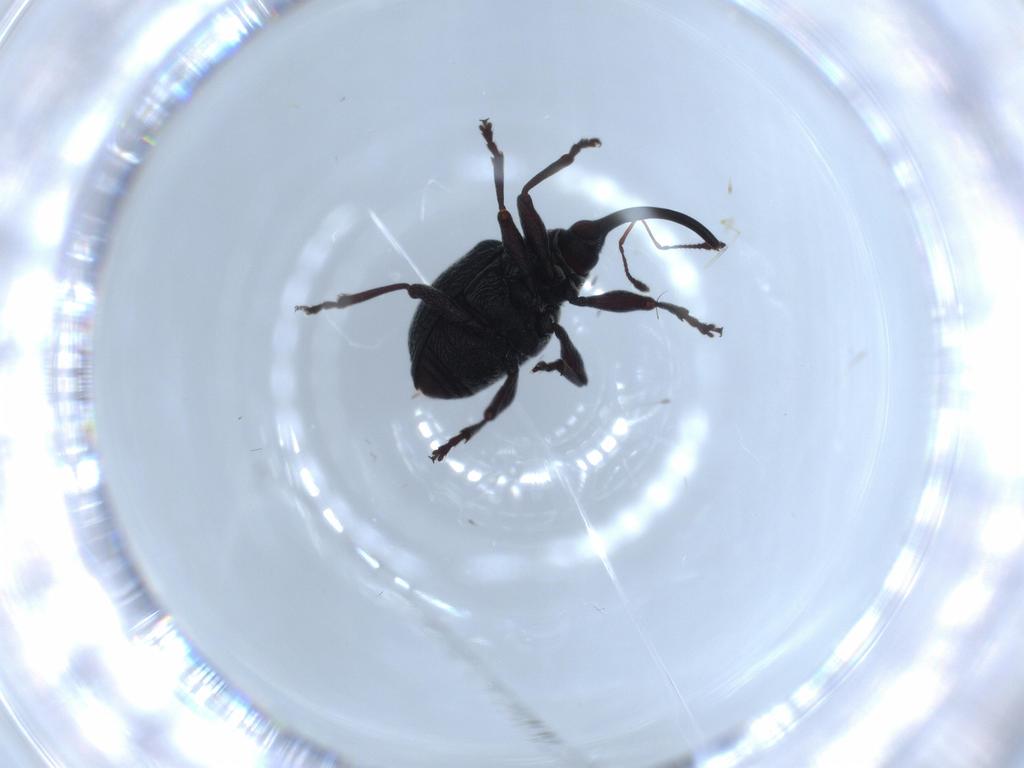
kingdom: Animalia
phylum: Arthropoda
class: Insecta
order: Coleoptera
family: Brentidae
